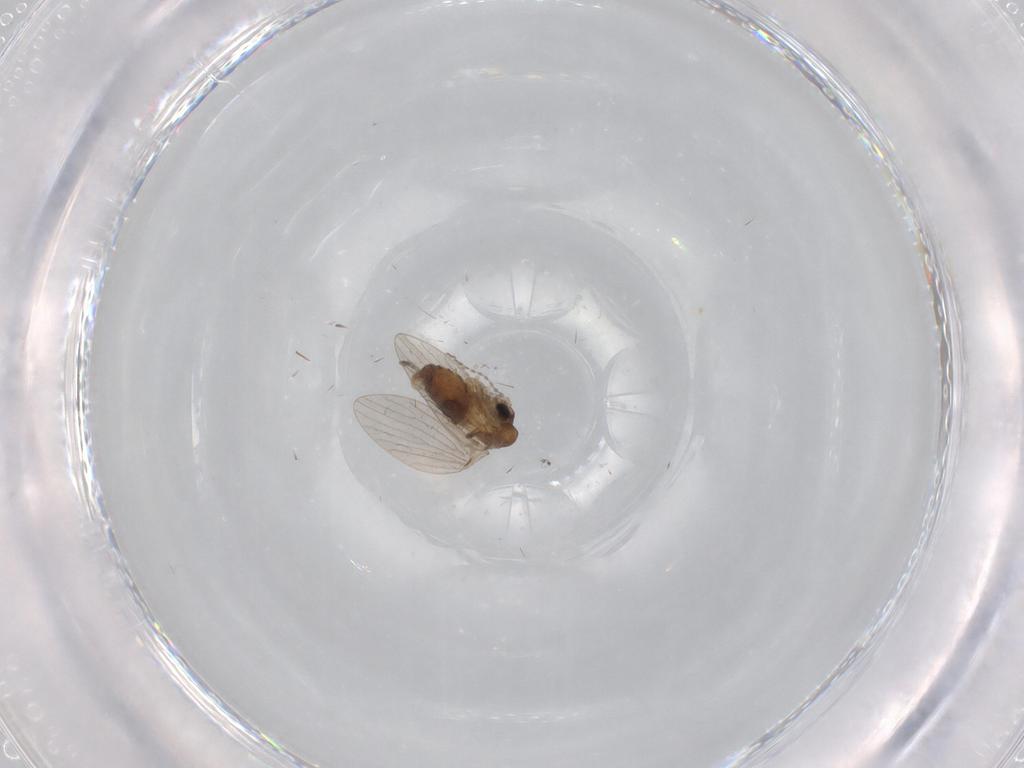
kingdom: Animalia
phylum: Arthropoda
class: Insecta
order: Diptera
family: Psychodidae
